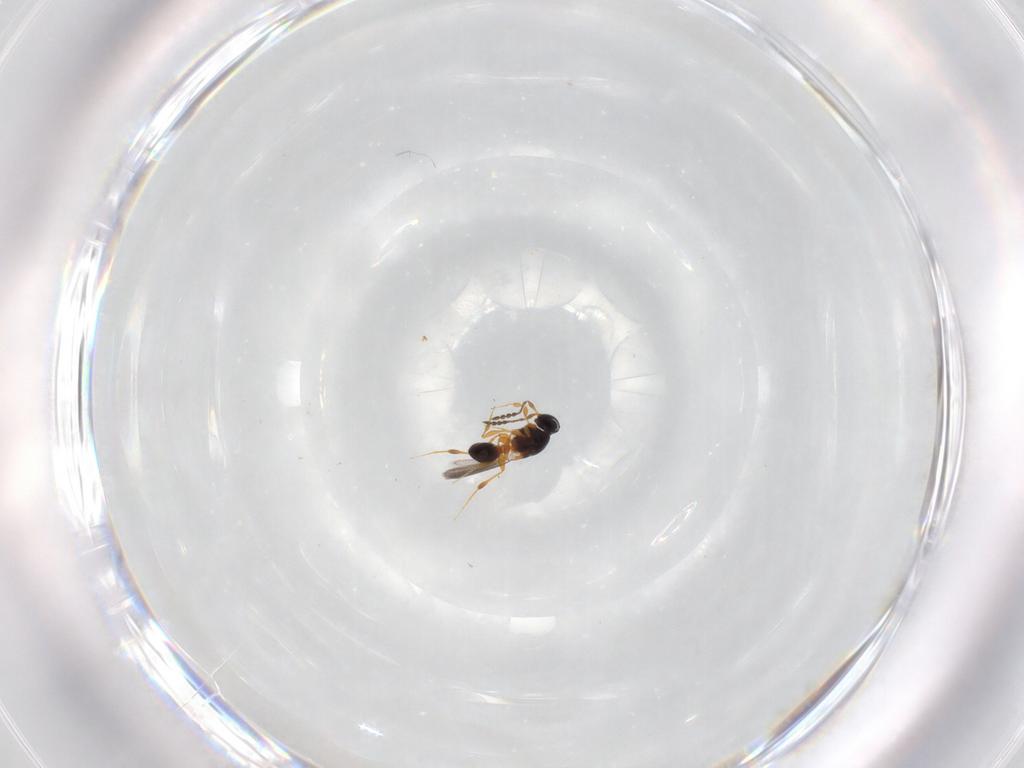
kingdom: Animalia
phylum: Arthropoda
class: Insecta
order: Hymenoptera
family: Platygastridae
